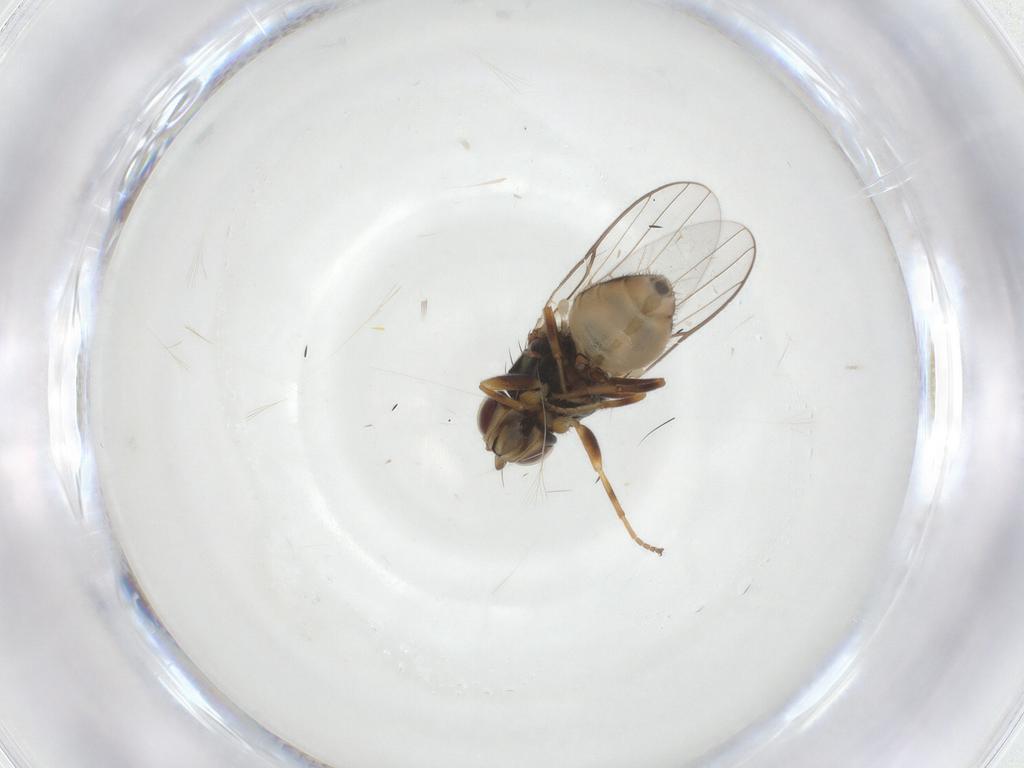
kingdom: Animalia
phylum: Arthropoda
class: Insecta
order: Diptera
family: Chloropidae
